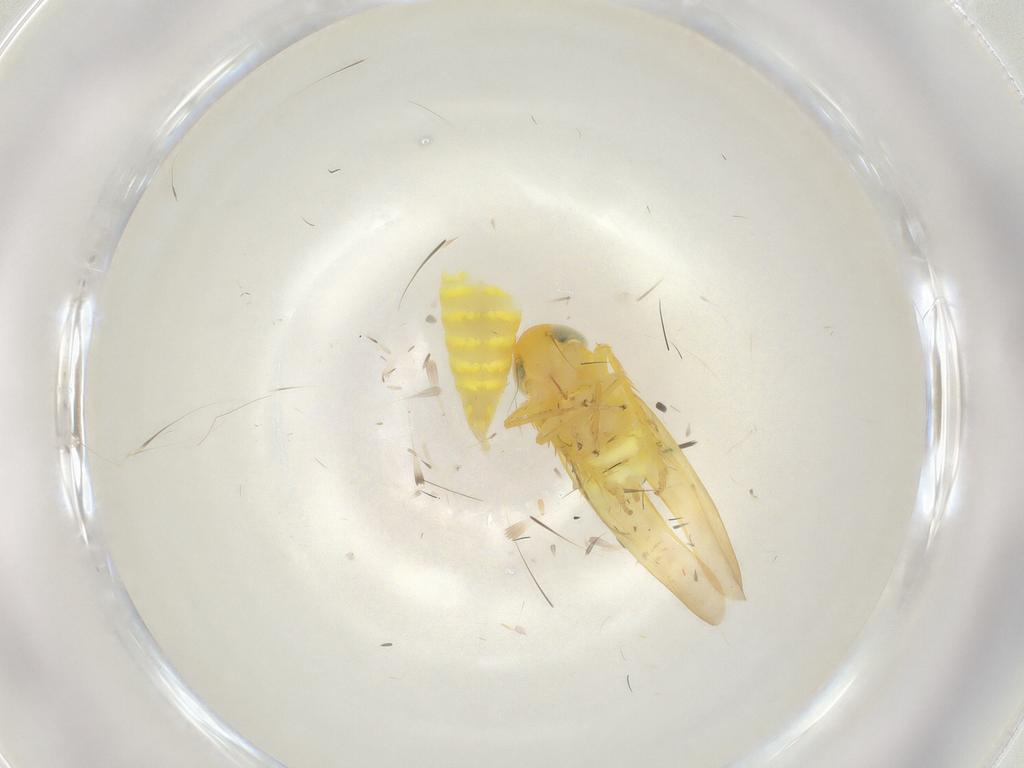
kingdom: Animalia
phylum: Arthropoda
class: Insecta
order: Hemiptera
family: Cicadellidae
